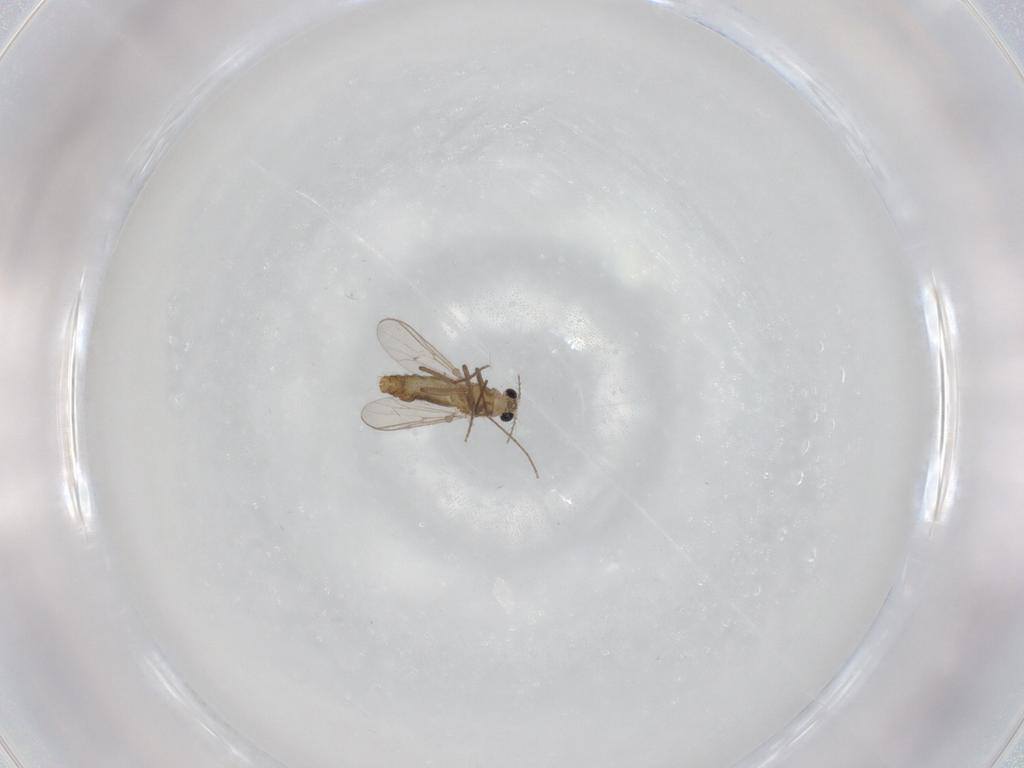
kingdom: Animalia
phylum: Arthropoda
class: Insecta
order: Diptera
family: Chironomidae
